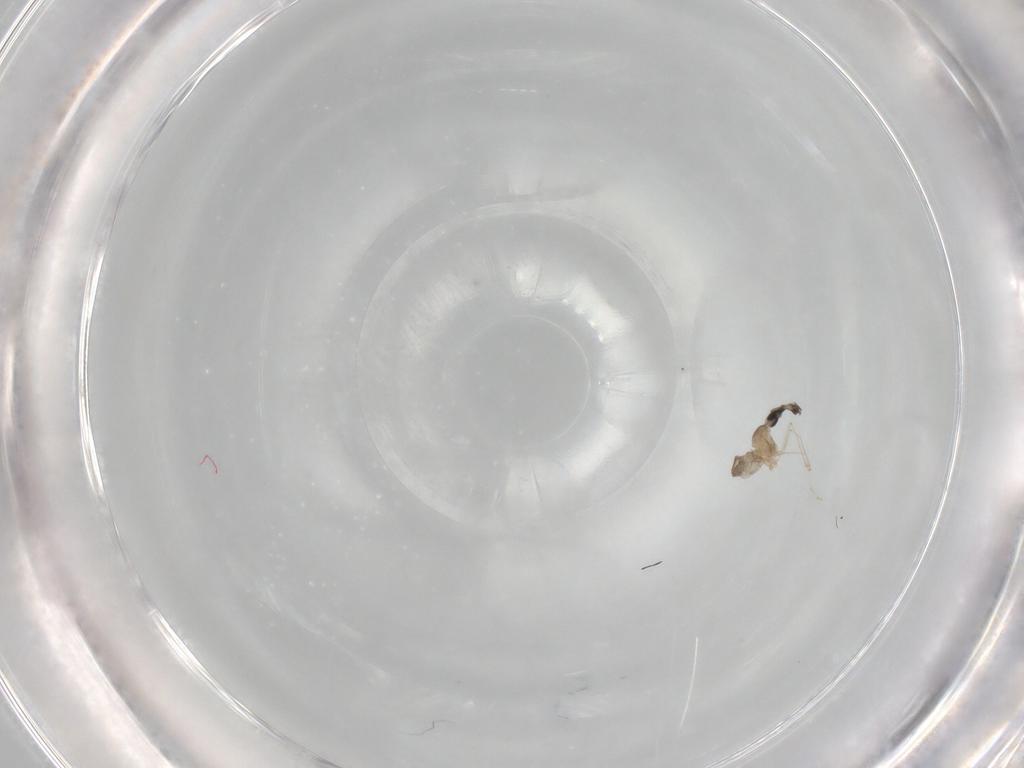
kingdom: Animalia
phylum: Arthropoda
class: Insecta
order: Diptera
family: Cecidomyiidae
